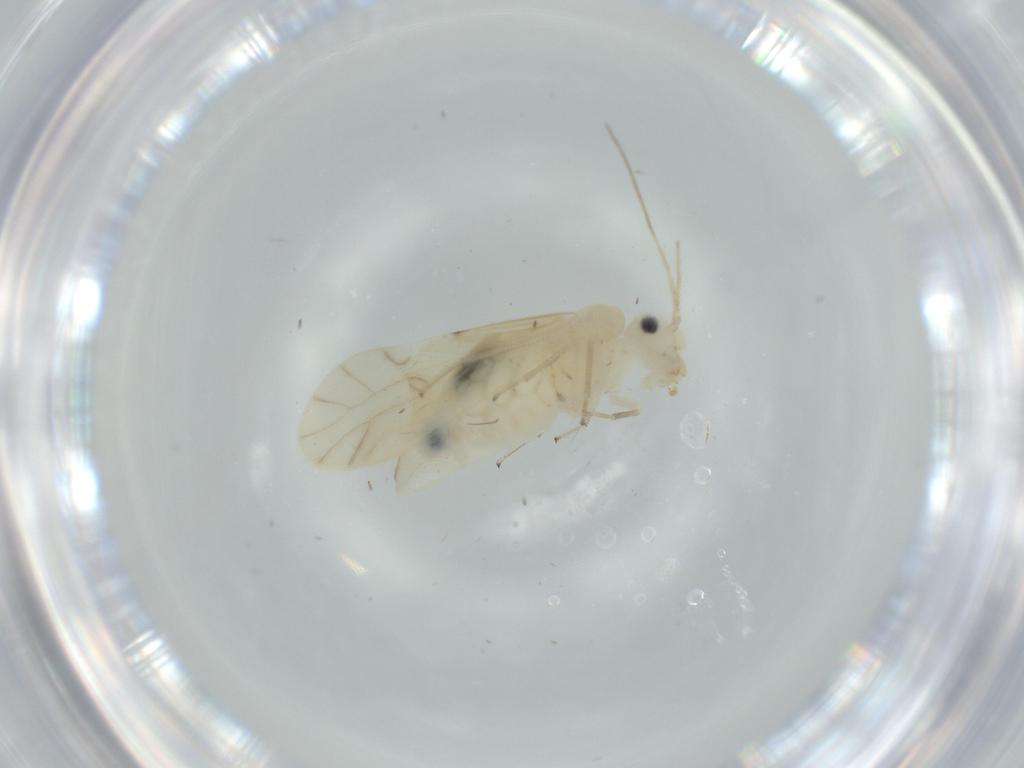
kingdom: Animalia
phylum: Arthropoda
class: Insecta
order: Psocodea
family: Caeciliusidae
